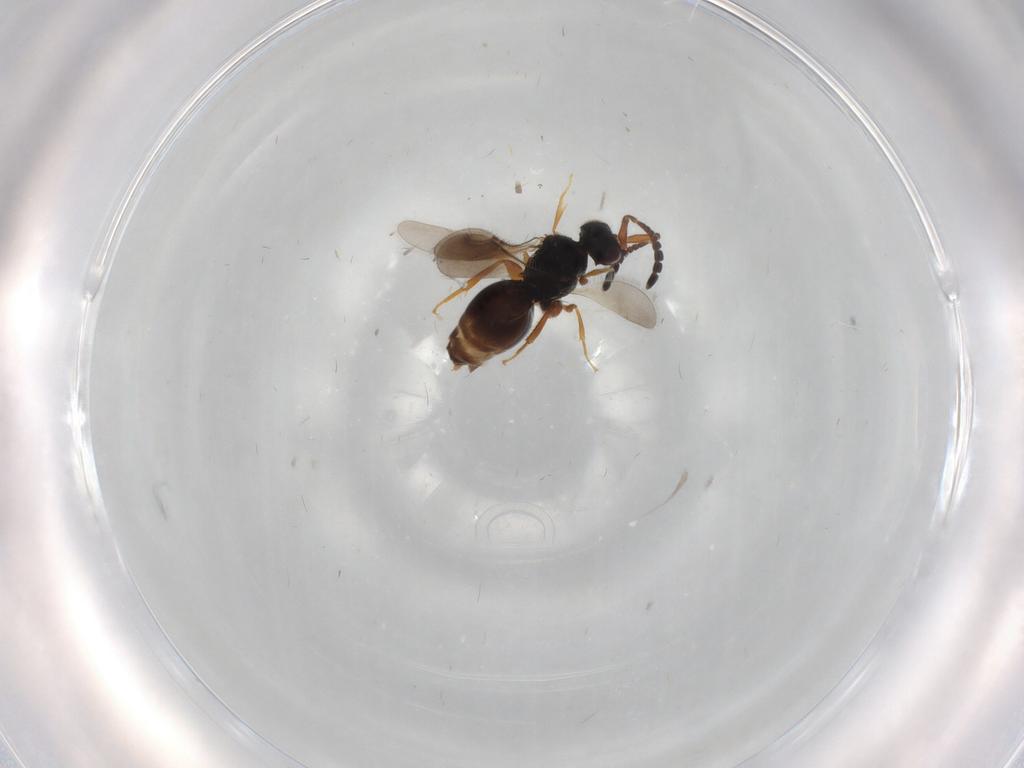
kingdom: Animalia
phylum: Arthropoda
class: Insecta
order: Hymenoptera
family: Ceraphronidae
